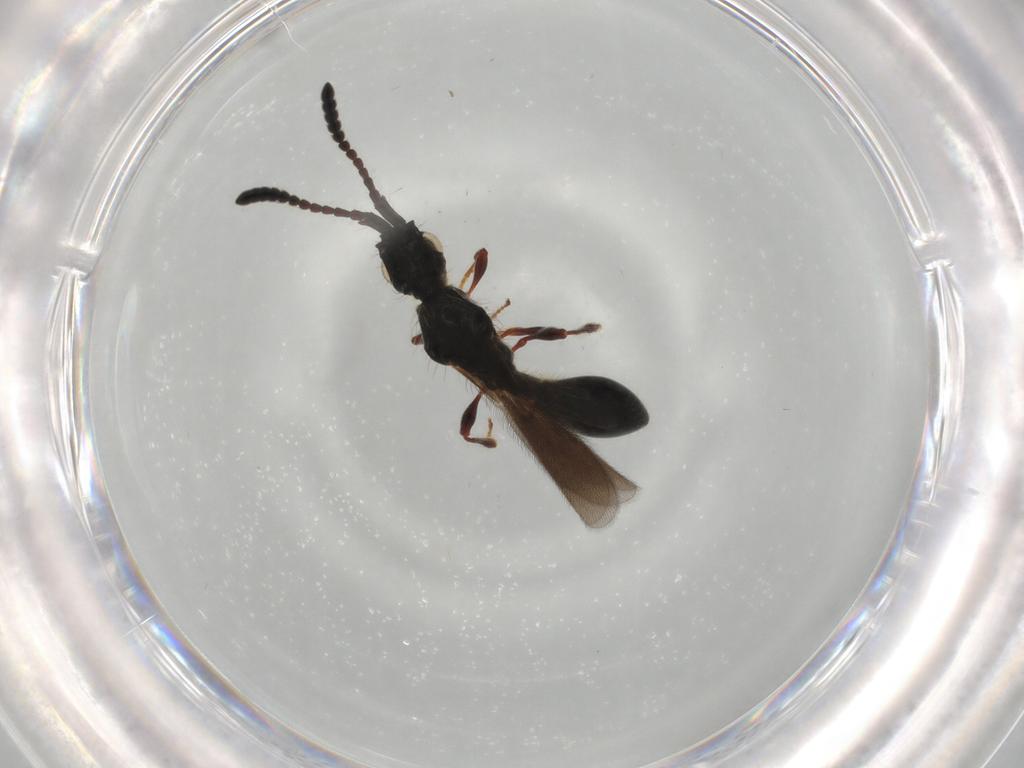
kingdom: Animalia
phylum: Arthropoda
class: Insecta
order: Hymenoptera
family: Diapriidae
